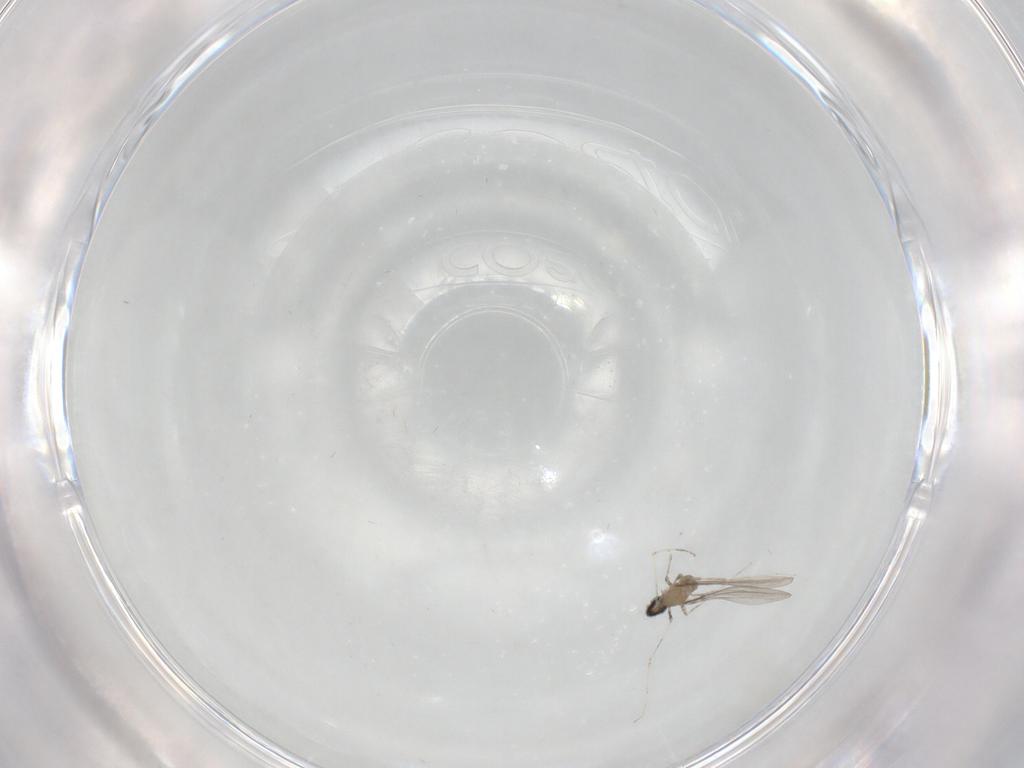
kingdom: Animalia
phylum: Arthropoda
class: Insecta
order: Diptera
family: Cecidomyiidae
